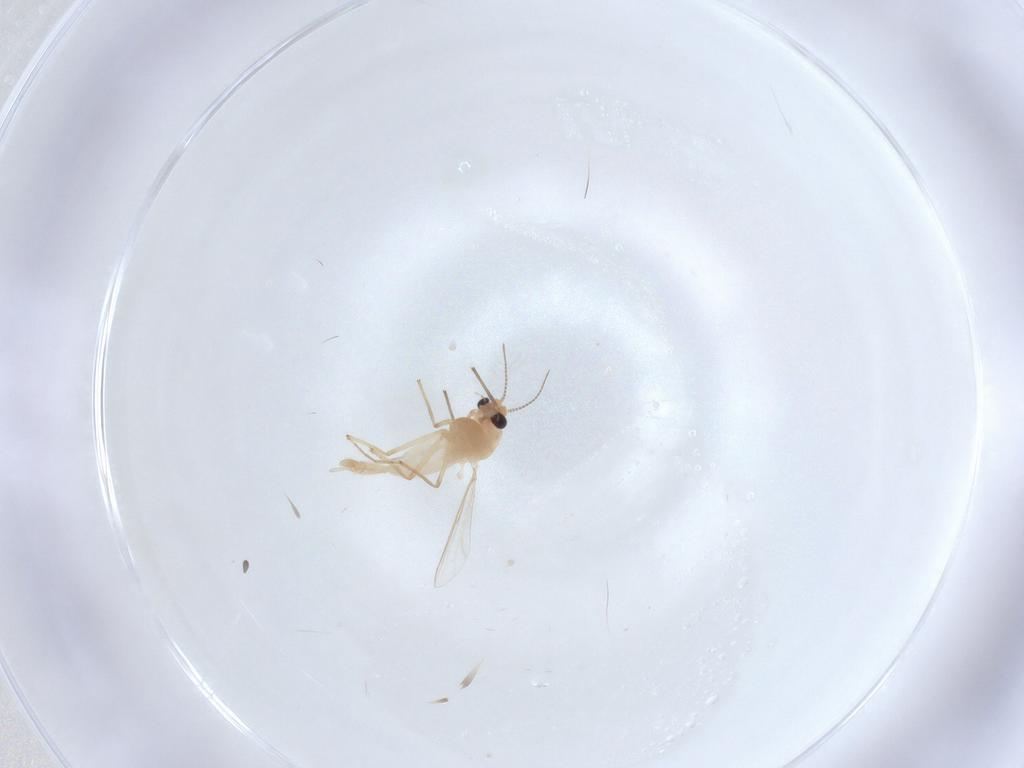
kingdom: Animalia
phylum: Arthropoda
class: Insecta
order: Diptera
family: Chironomidae
